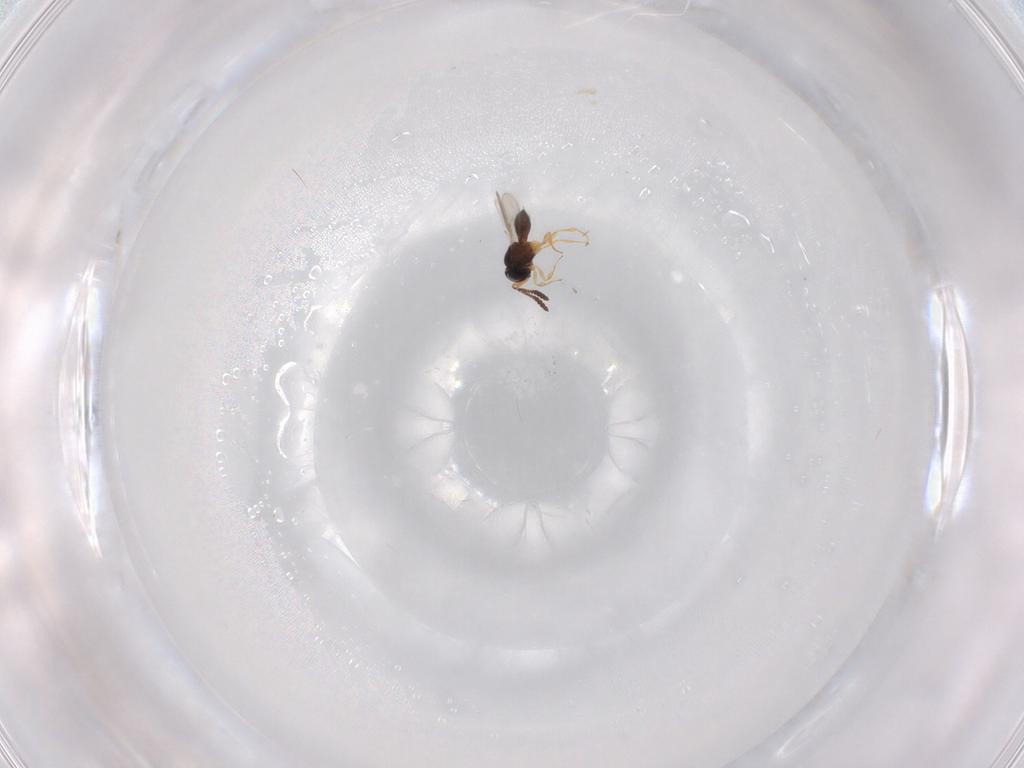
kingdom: Animalia
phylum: Arthropoda
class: Insecta
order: Hymenoptera
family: Scelionidae
